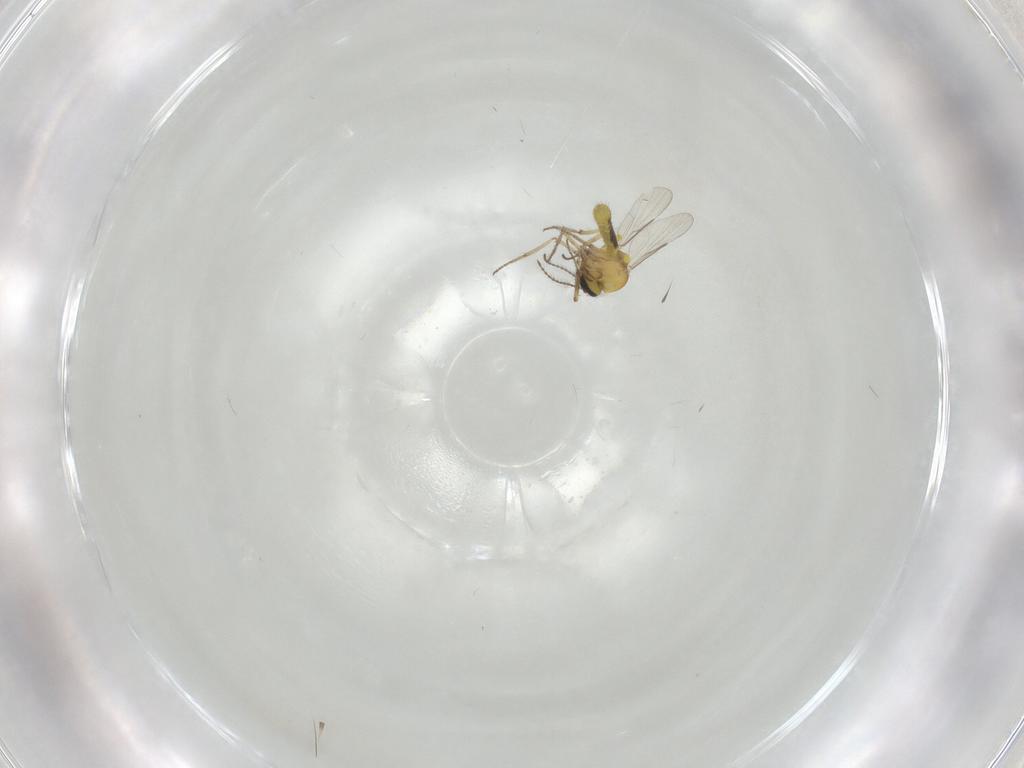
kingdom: Animalia
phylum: Arthropoda
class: Insecta
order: Diptera
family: Ceratopogonidae
